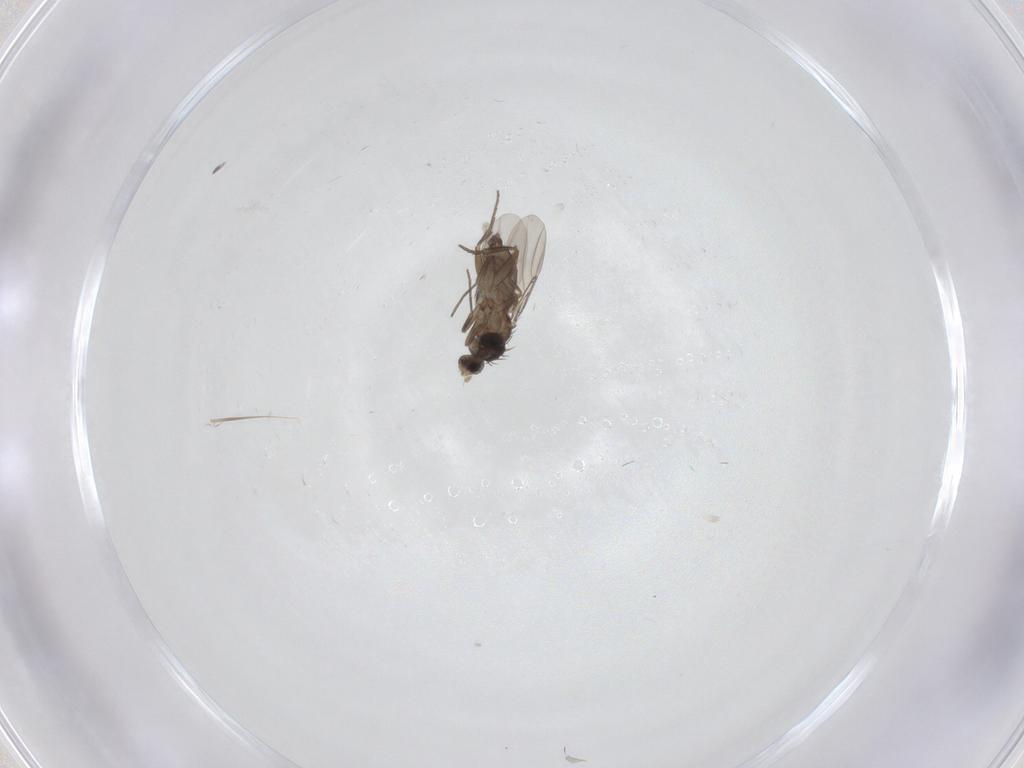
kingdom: Animalia
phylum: Arthropoda
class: Insecta
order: Diptera
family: Phoridae
